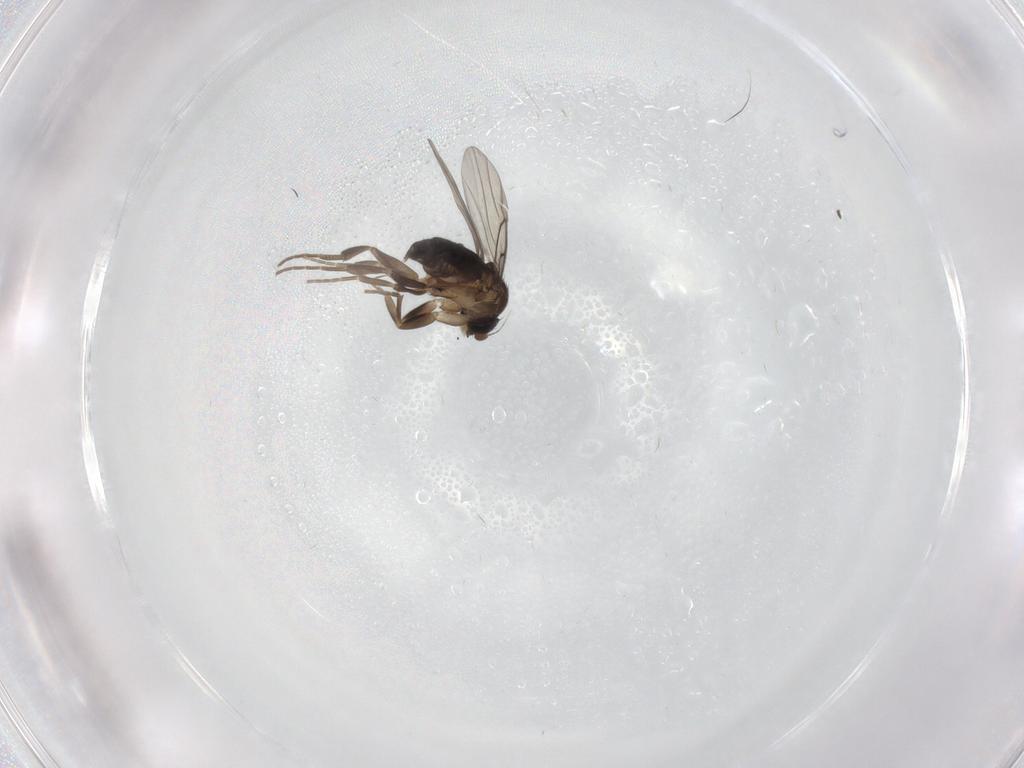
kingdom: Animalia
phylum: Arthropoda
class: Insecta
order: Diptera
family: Phoridae
